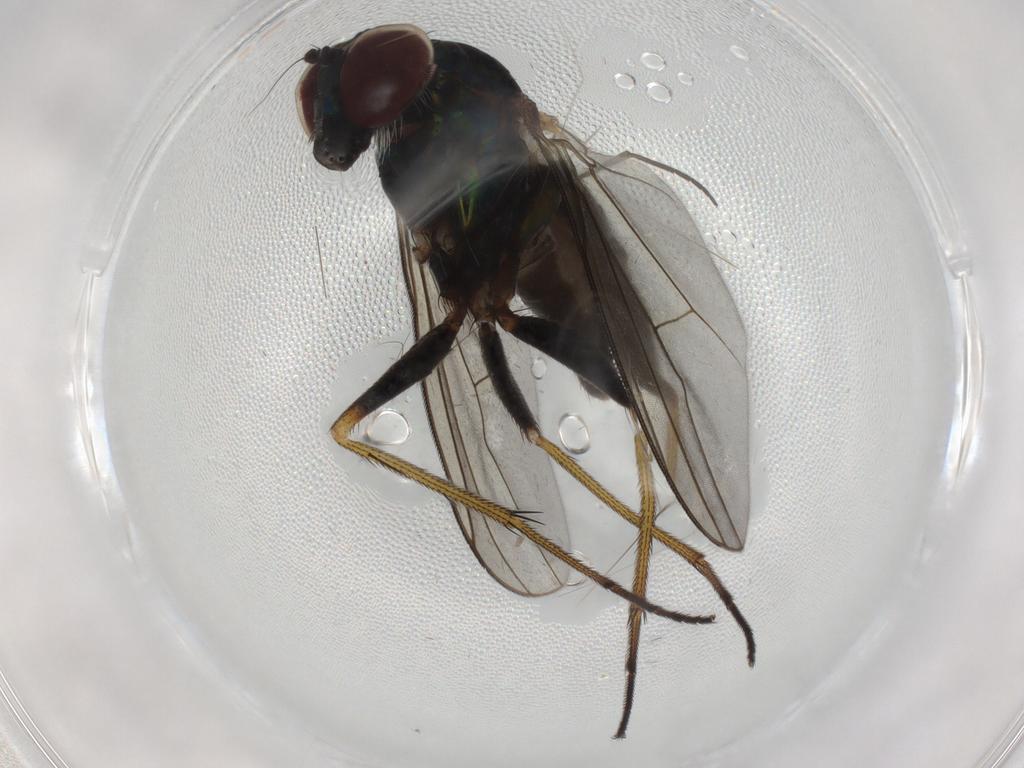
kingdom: Animalia
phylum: Arthropoda
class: Insecta
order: Diptera
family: Dolichopodidae
